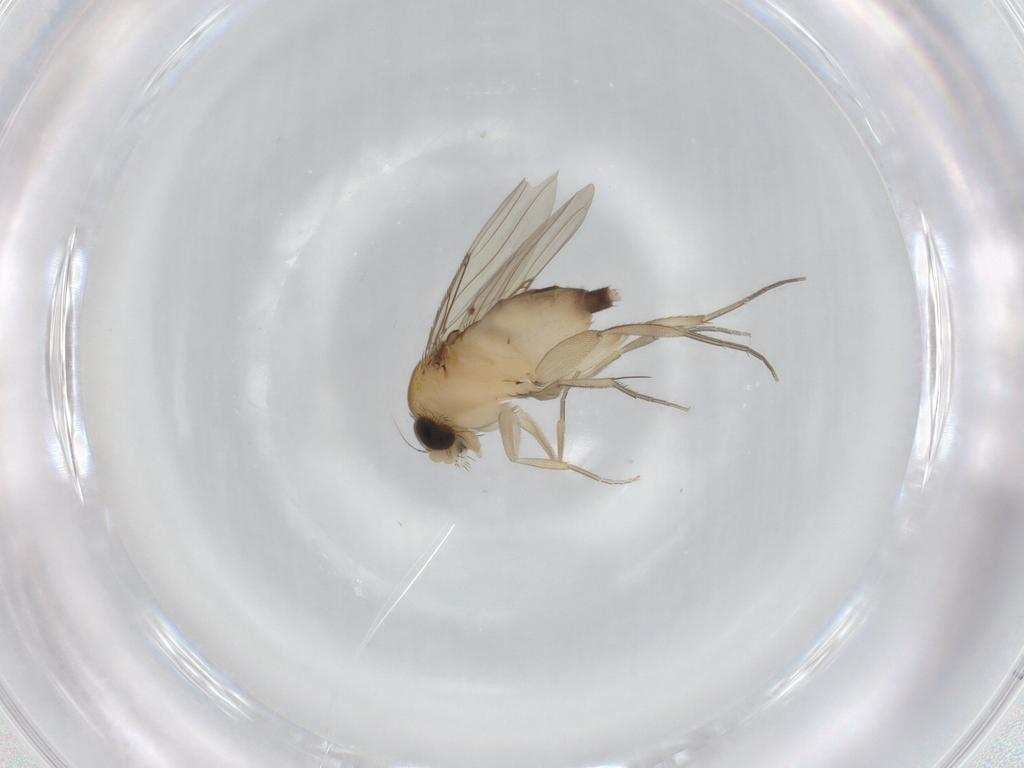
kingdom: Animalia
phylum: Arthropoda
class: Insecta
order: Diptera
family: Phoridae
